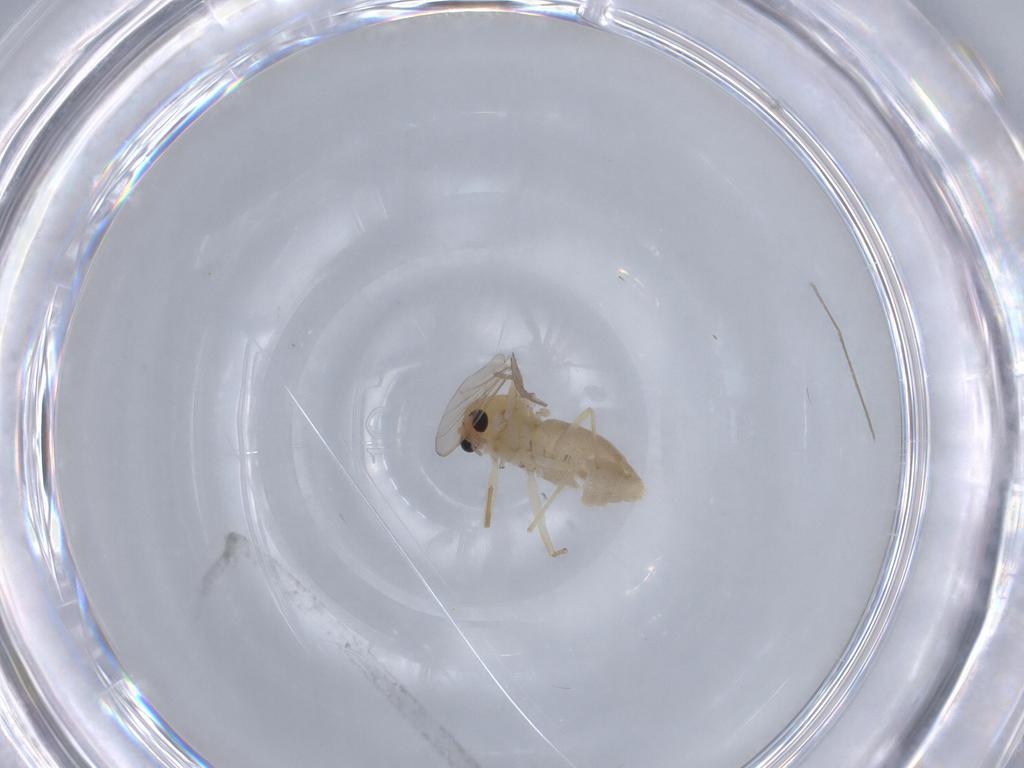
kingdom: Animalia
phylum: Arthropoda
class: Insecta
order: Diptera
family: Chironomidae
